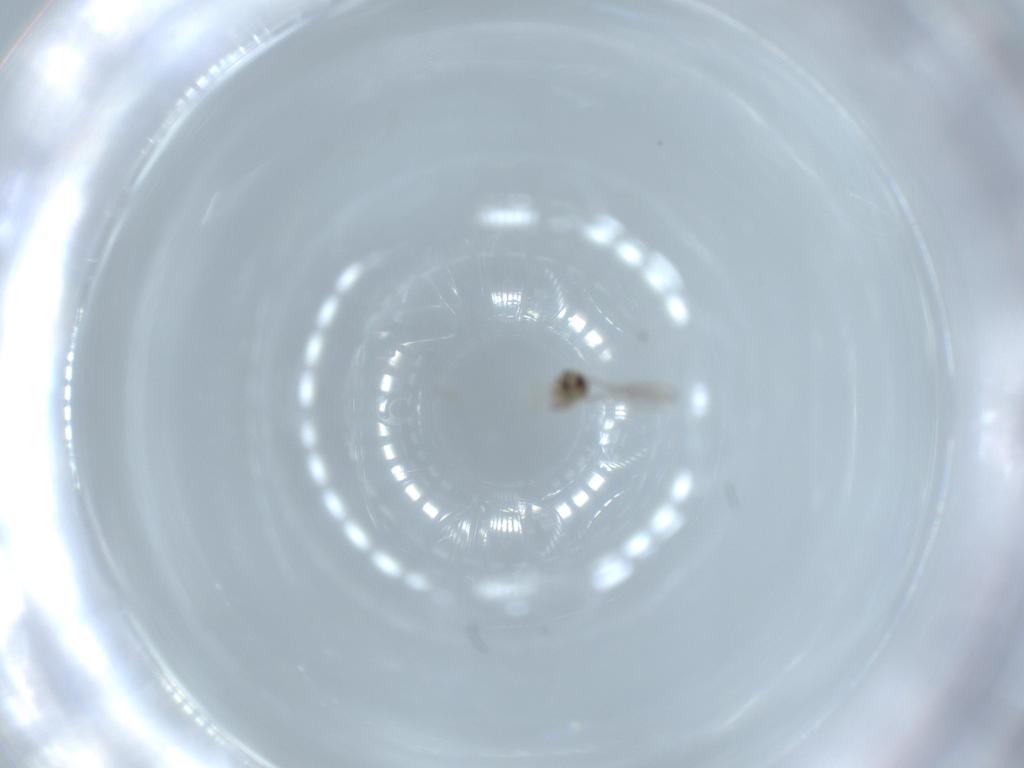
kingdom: Animalia
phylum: Arthropoda
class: Insecta
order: Diptera
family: Cecidomyiidae
